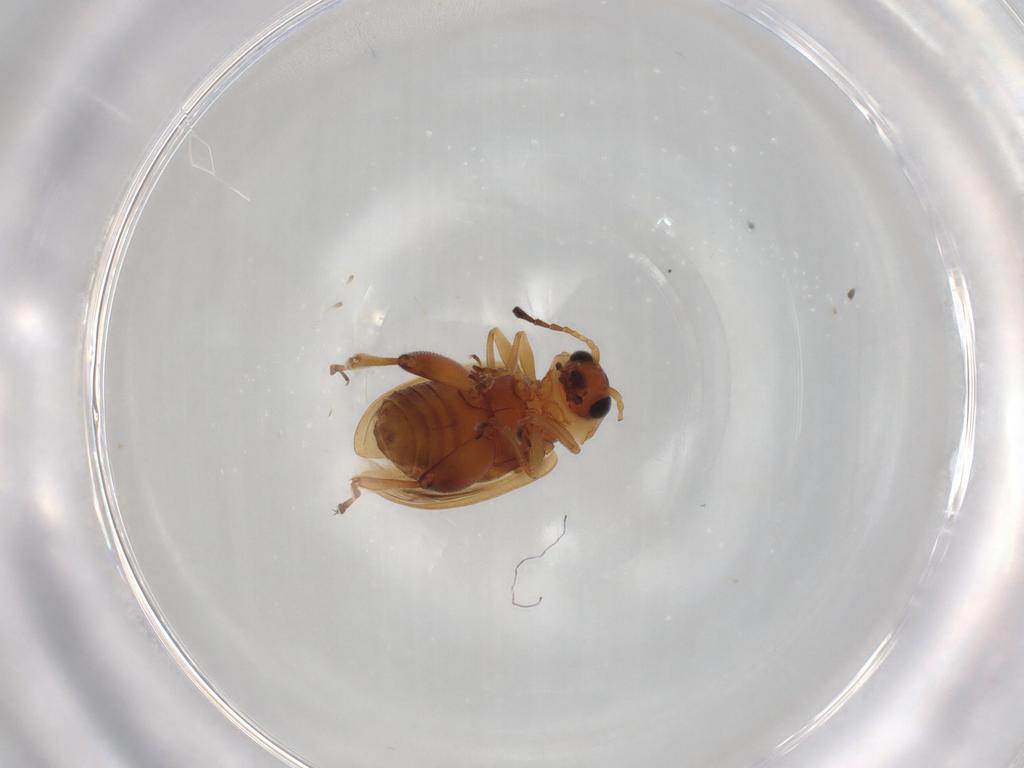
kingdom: Animalia
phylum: Arthropoda
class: Insecta
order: Coleoptera
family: Chrysomelidae
